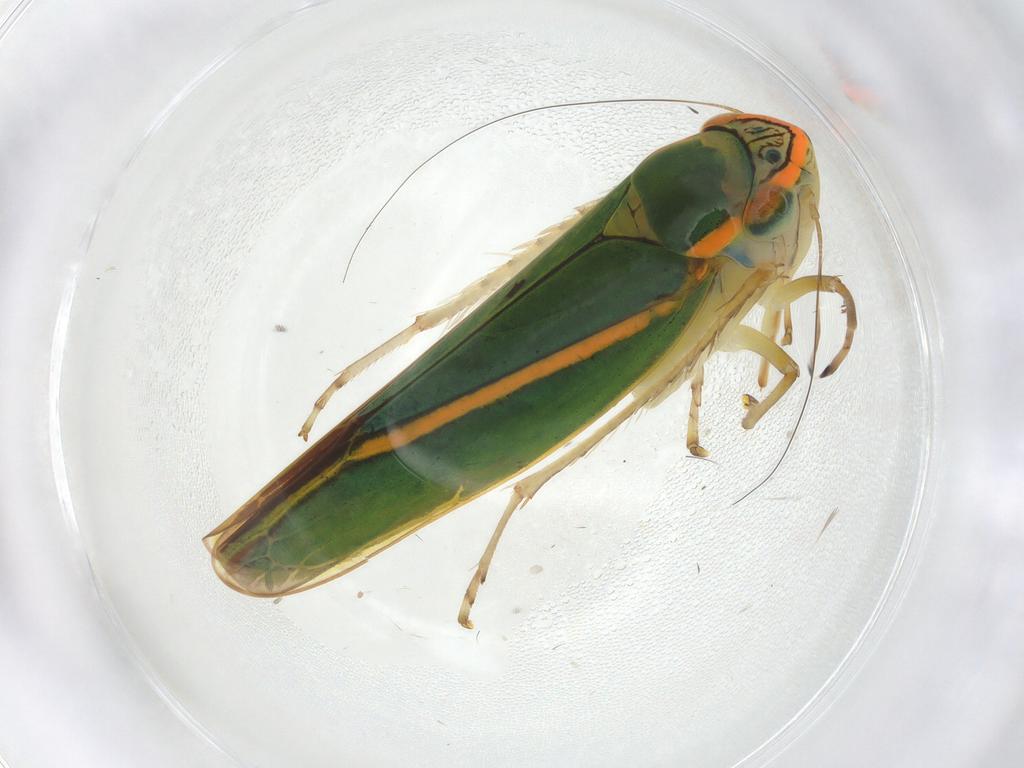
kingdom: Animalia
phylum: Arthropoda
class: Insecta
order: Hemiptera
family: Cicadellidae
